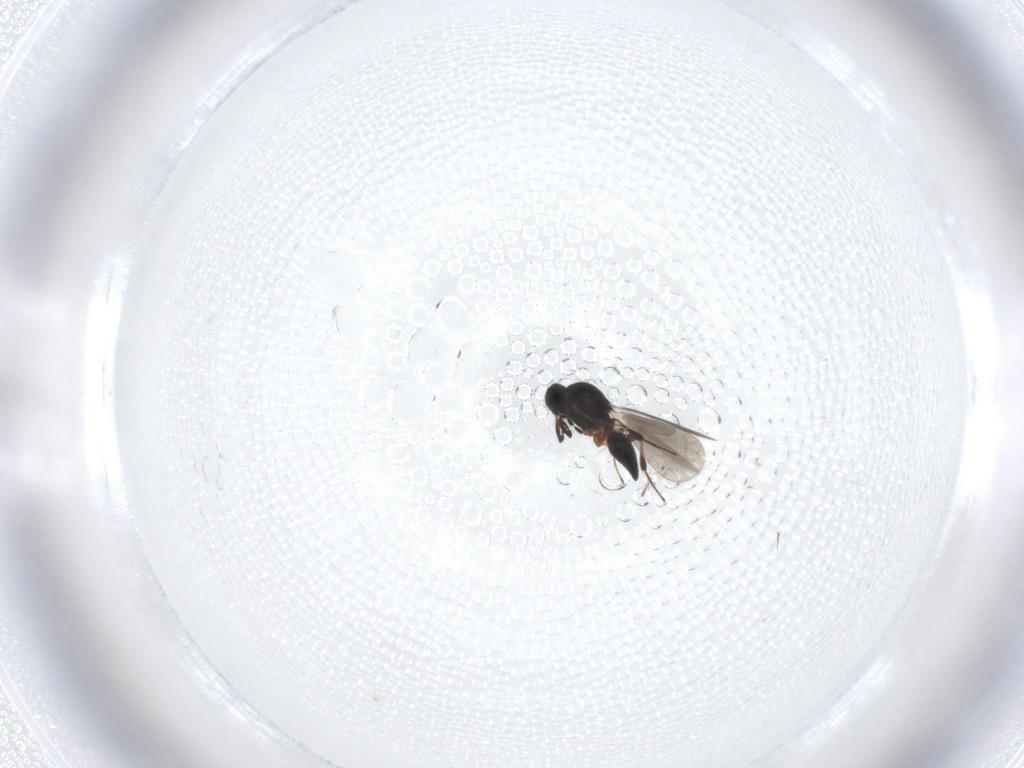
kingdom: Animalia
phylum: Arthropoda
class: Insecta
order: Hymenoptera
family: Platygastridae
